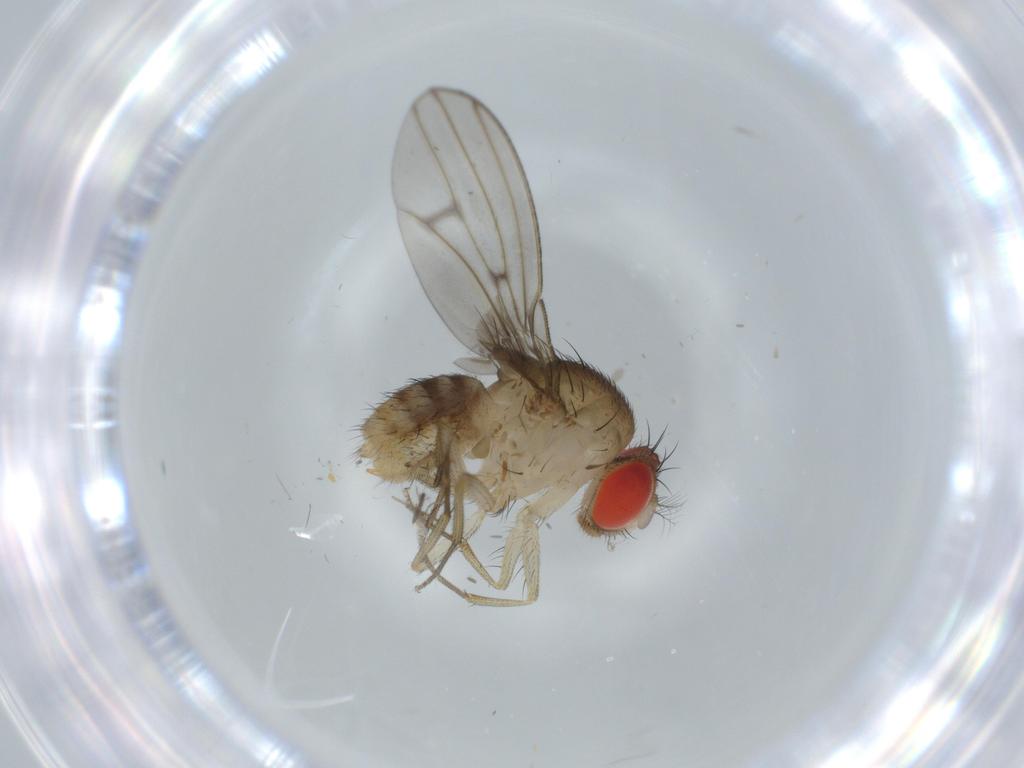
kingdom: Animalia
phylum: Arthropoda
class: Insecta
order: Diptera
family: Drosophilidae
